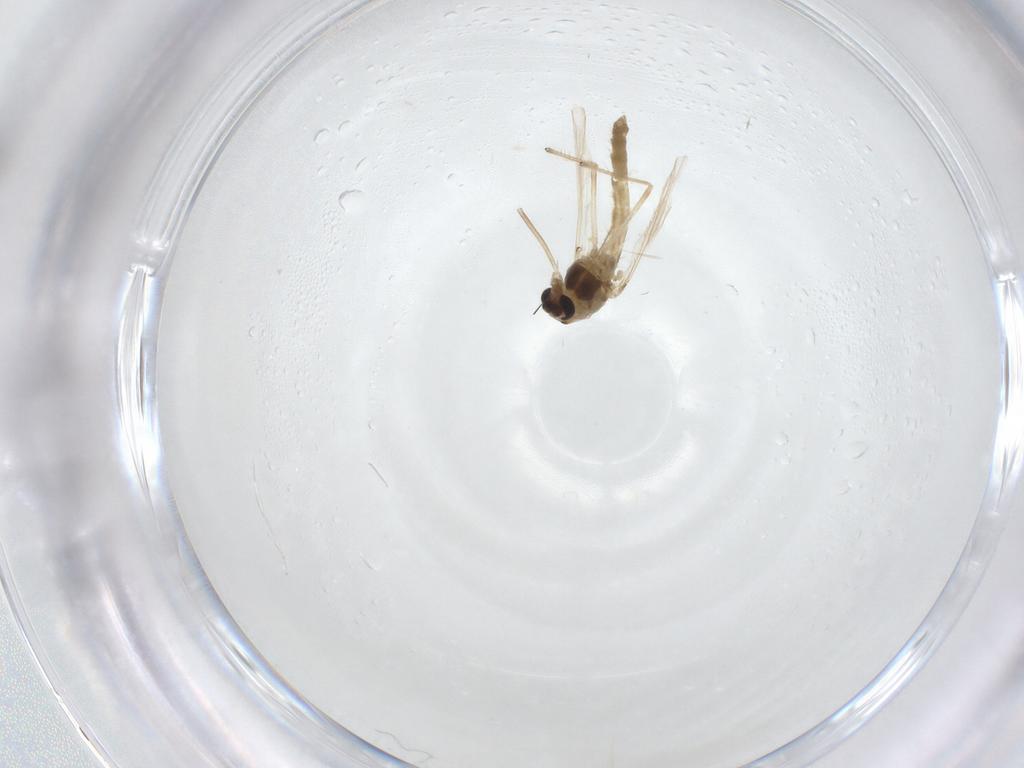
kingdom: Animalia
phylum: Arthropoda
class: Insecta
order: Diptera
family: Chironomidae
